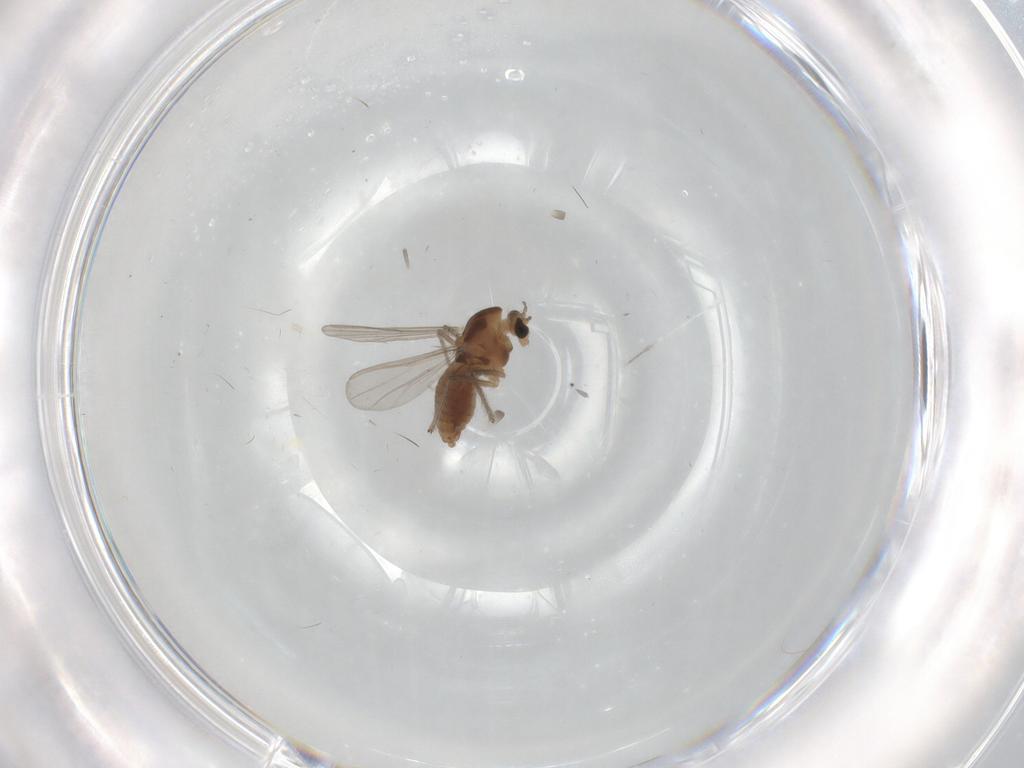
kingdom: Animalia
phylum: Arthropoda
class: Insecta
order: Diptera
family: Chironomidae
